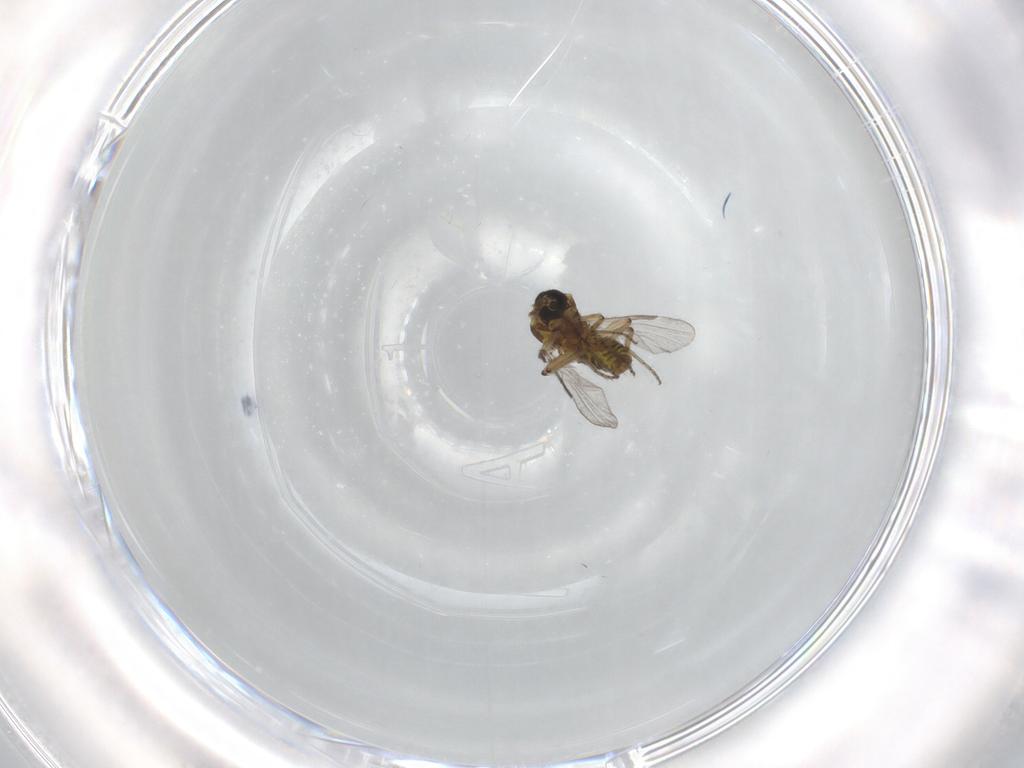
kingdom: Animalia
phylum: Arthropoda
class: Insecta
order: Diptera
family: Ceratopogonidae
